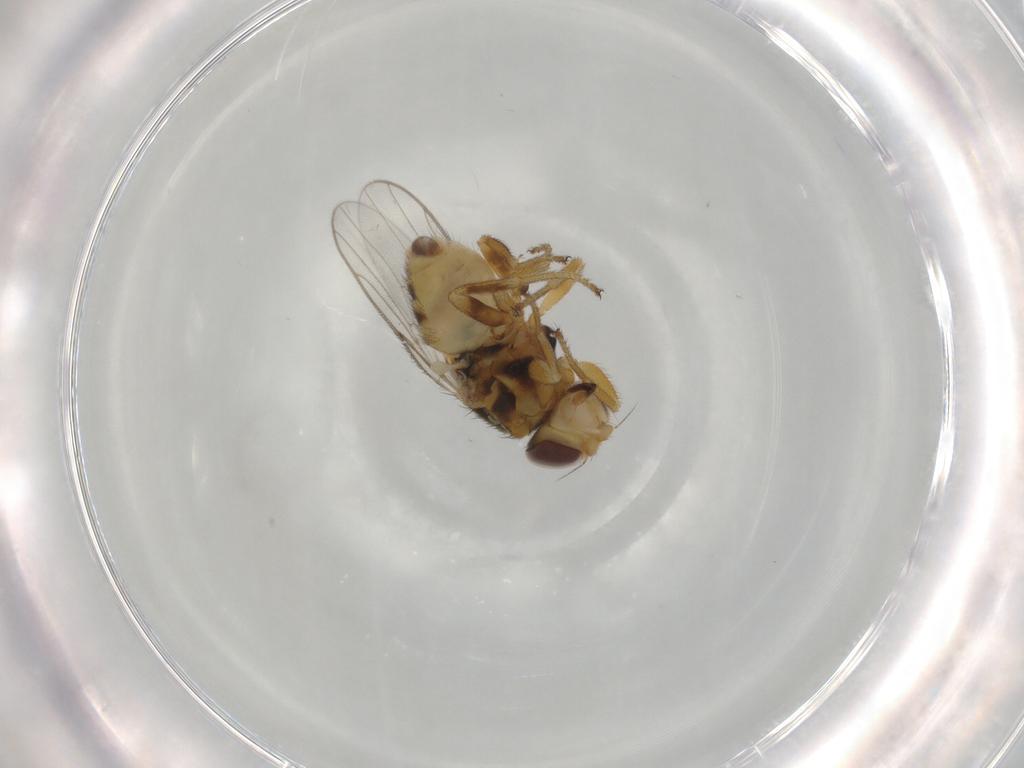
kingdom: Animalia
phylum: Arthropoda
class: Insecta
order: Diptera
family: Chloropidae
